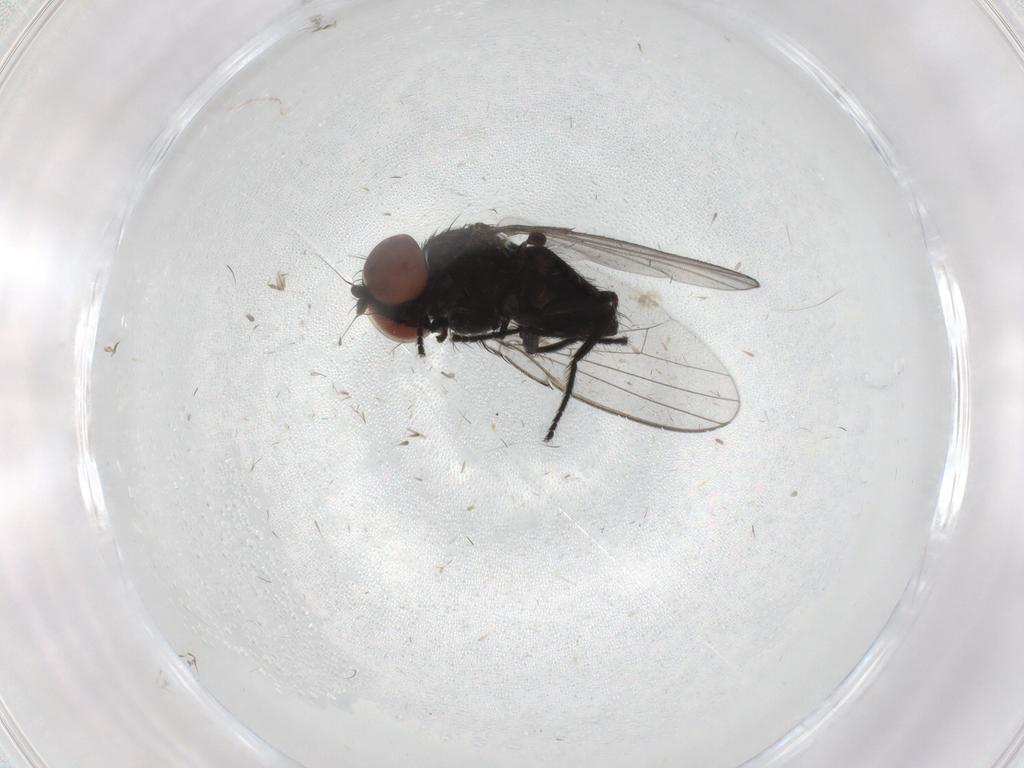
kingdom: Animalia
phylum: Arthropoda
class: Insecta
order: Diptera
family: Milichiidae
